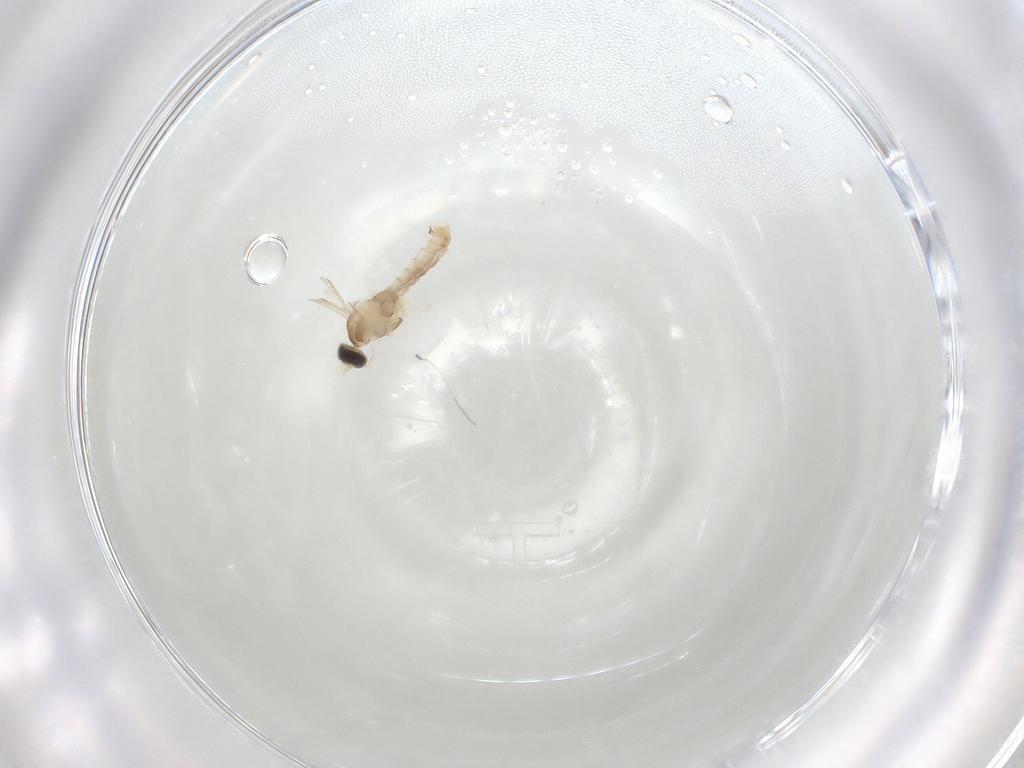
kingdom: Animalia
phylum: Arthropoda
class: Insecta
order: Diptera
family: Cecidomyiidae
